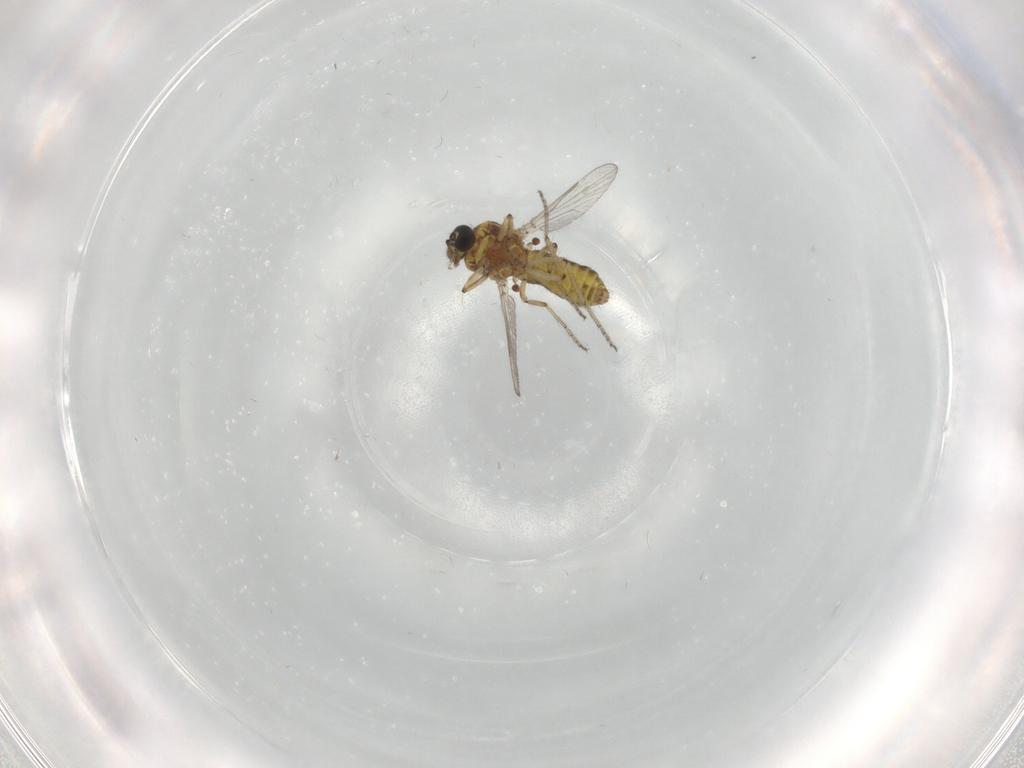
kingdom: Animalia
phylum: Arthropoda
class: Insecta
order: Diptera
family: Ceratopogonidae
